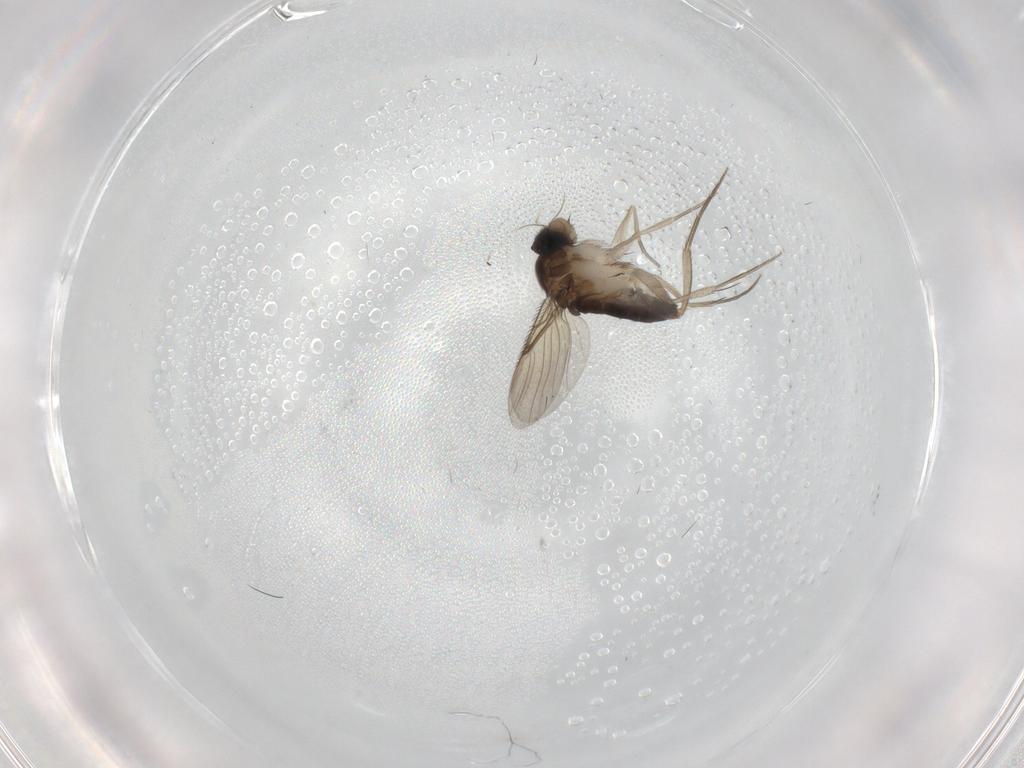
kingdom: Animalia
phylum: Arthropoda
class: Insecta
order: Diptera
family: Phoridae
